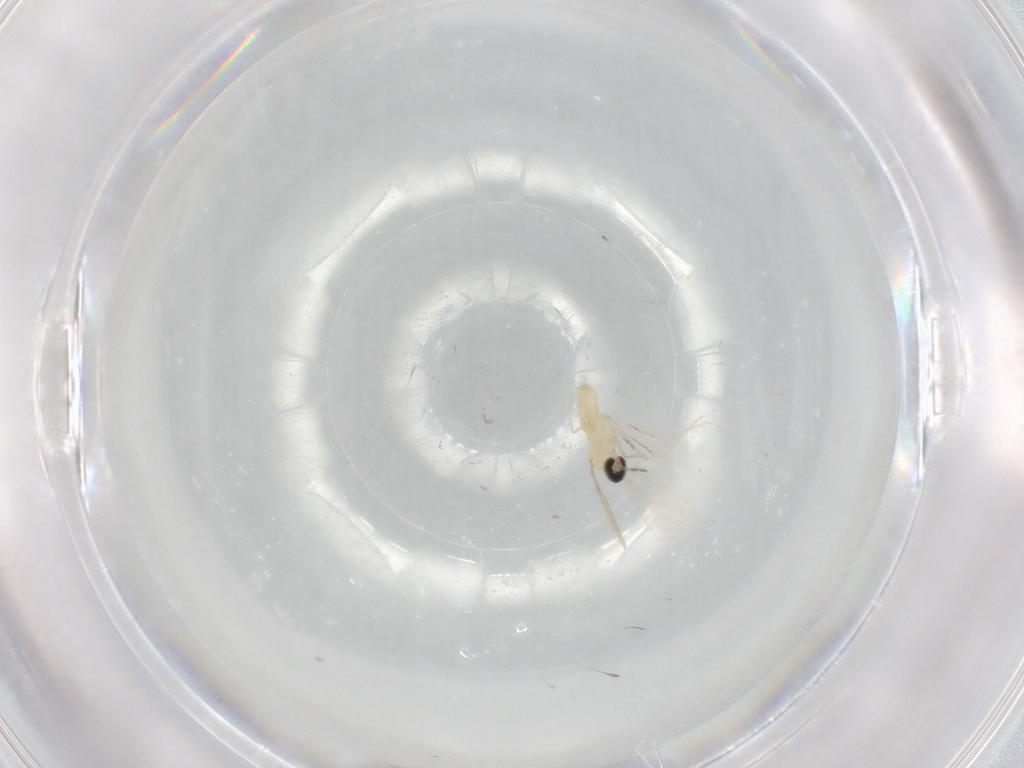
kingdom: Animalia
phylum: Arthropoda
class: Insecta
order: Diptera
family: Cecidomyiidae
